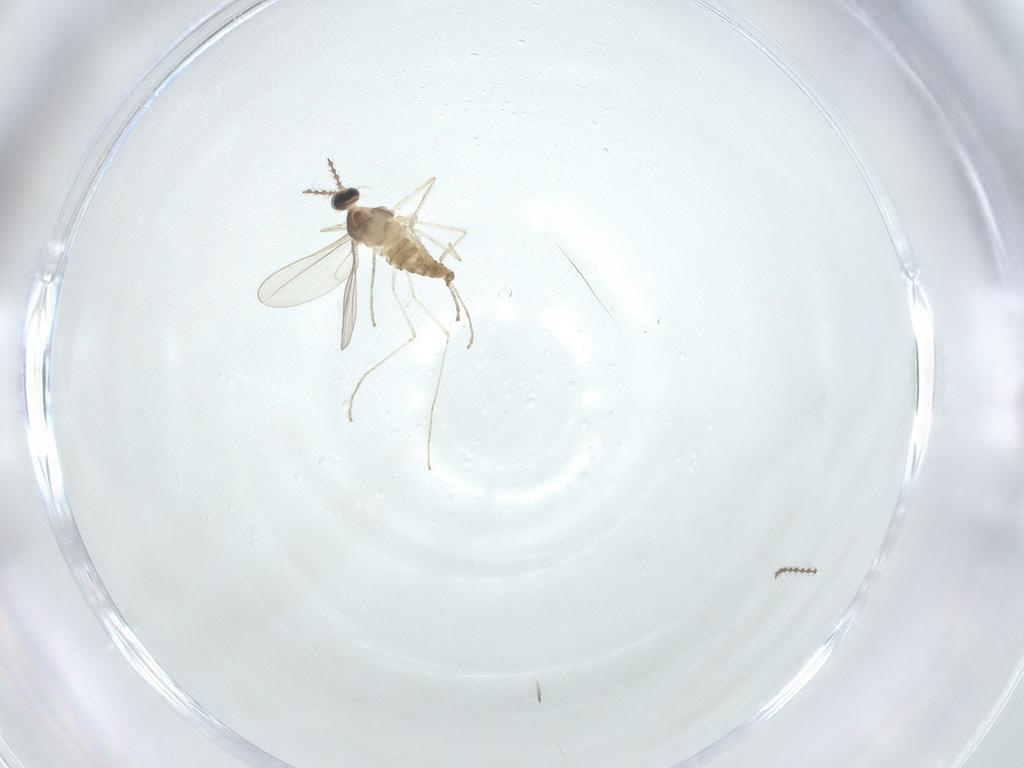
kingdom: Animalia
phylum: Arthropoda
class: Insecta
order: Diptera
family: Cecidomyiidae
